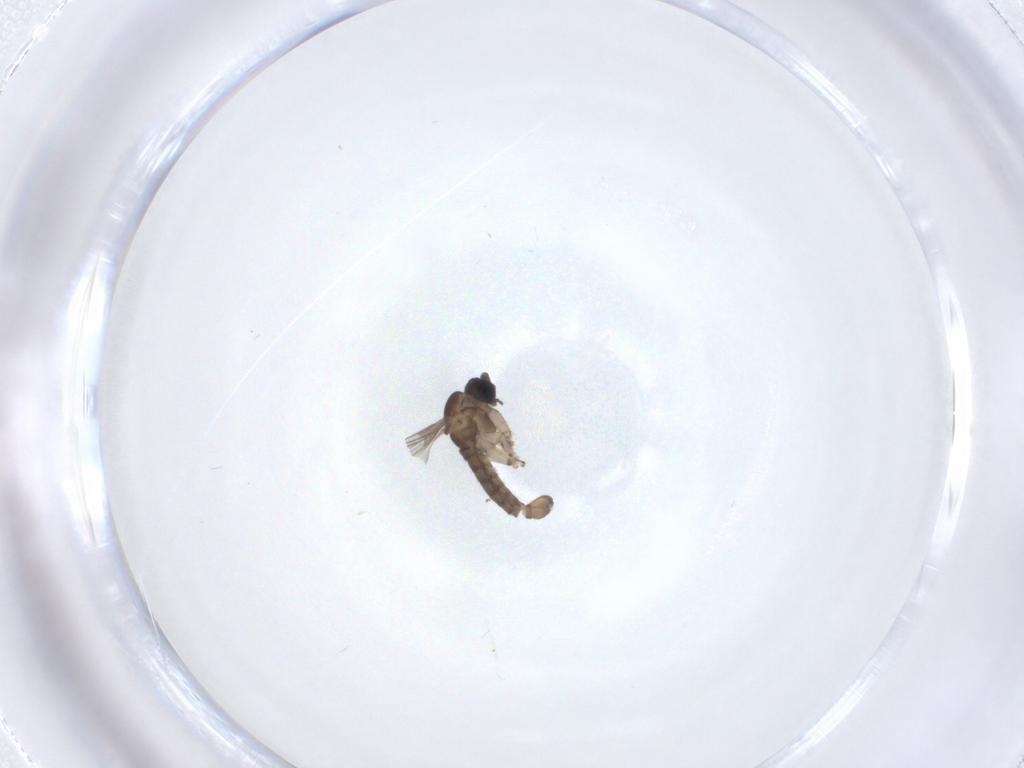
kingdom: Animalia
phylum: Arthropoda
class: Insecta
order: Diptera
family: Sciaridae
